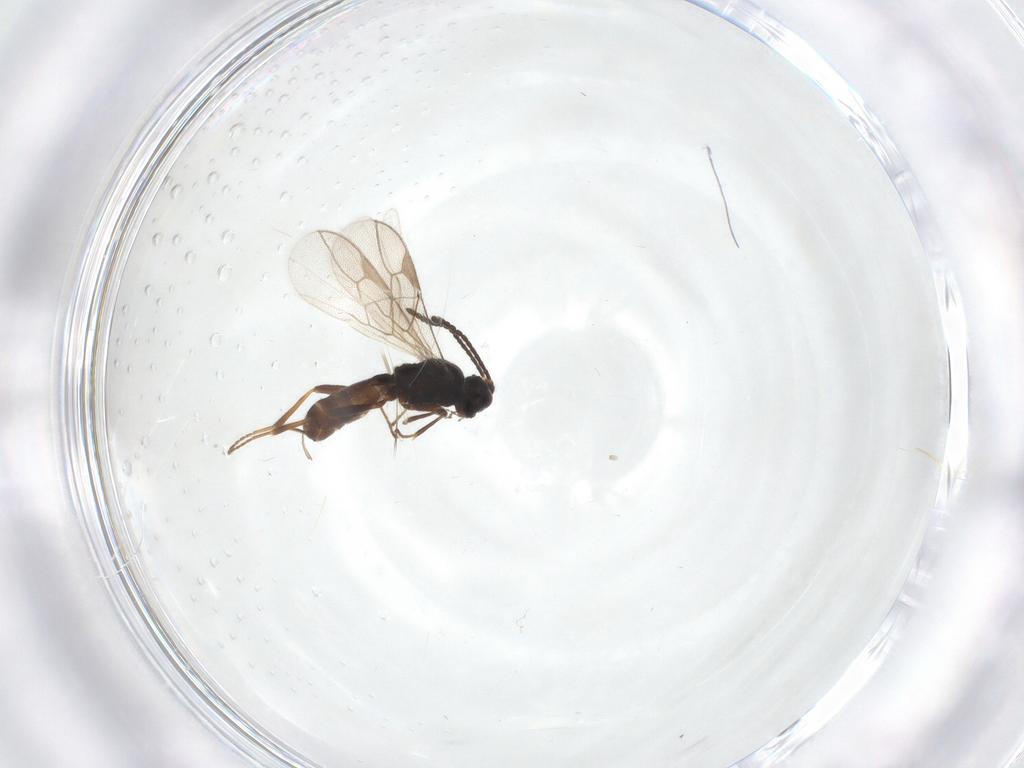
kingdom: Animalia
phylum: Arthropoda
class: Insecta
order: Hymenoptera
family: Braconidae
